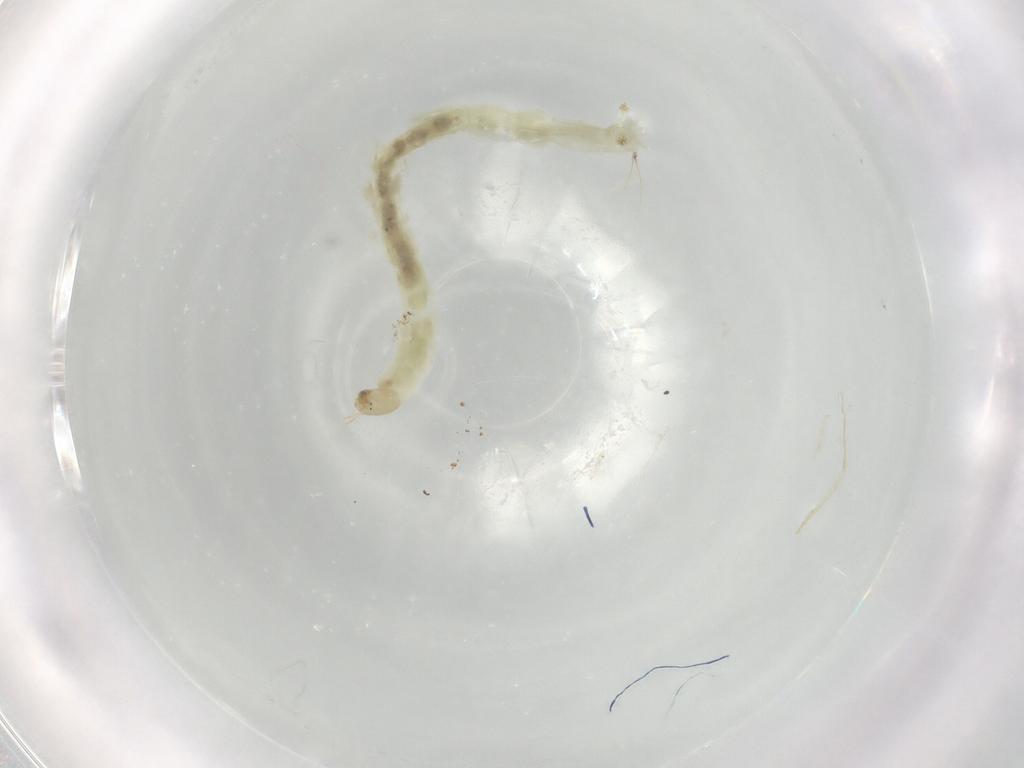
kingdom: Animalia
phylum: Arthropoda
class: Insecta
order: Diptera
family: Chironomidae
